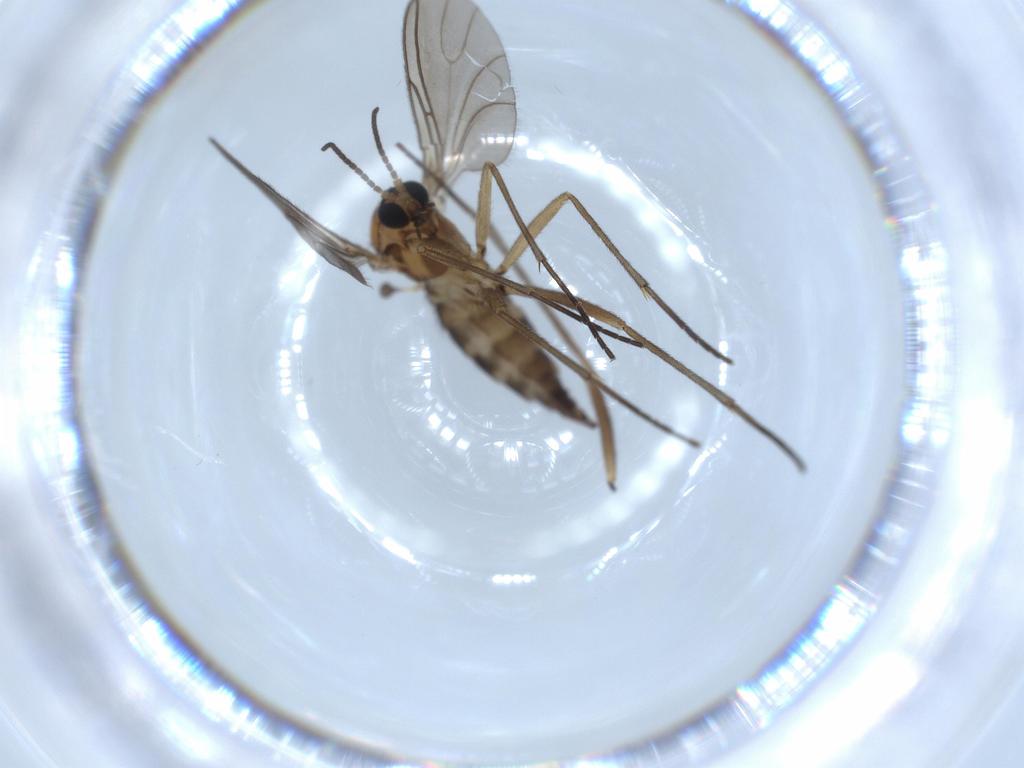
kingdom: Animalia
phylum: Arthropoda
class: Insecta
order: Diptera
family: Sciaridae
